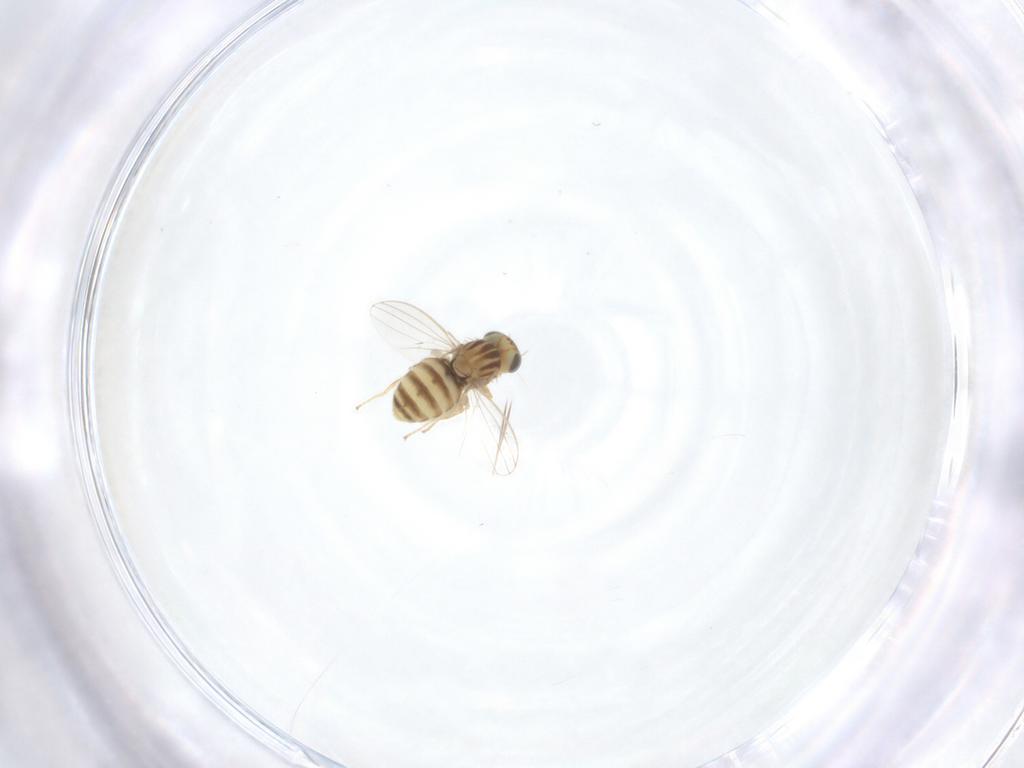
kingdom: Animalia
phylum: Arthropoda
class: Insecta
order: Diptera
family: Chyromyidae
